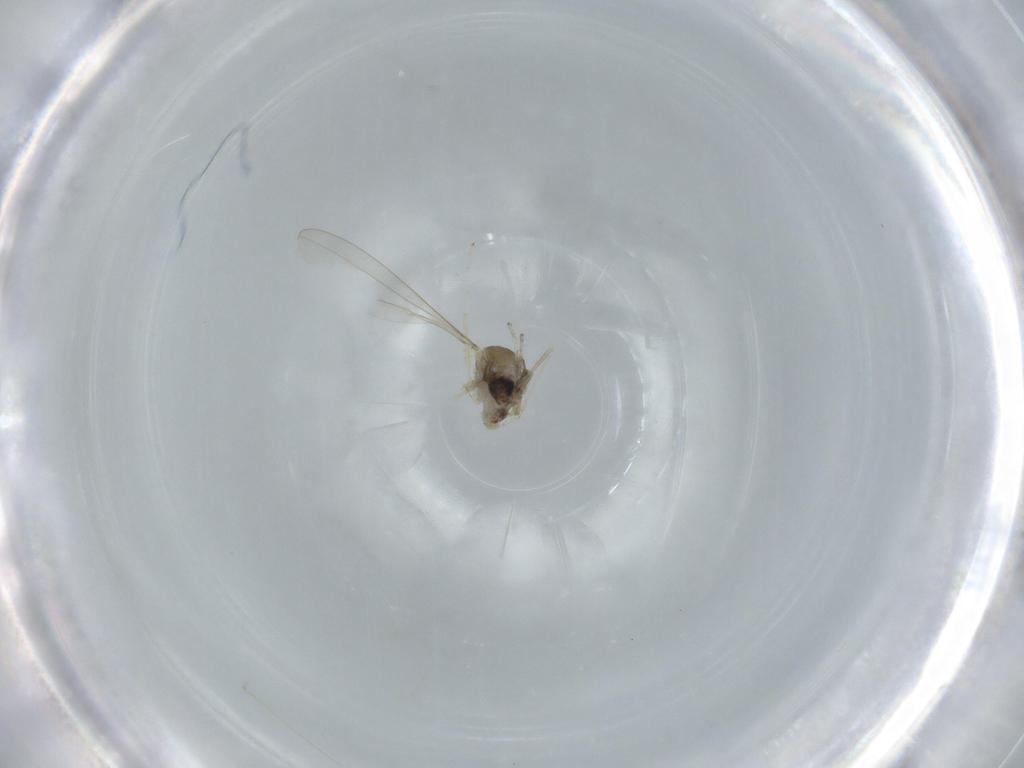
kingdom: Animalia
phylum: Arthropoda
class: Insecta
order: Diptera
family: Cecidomyiidae
